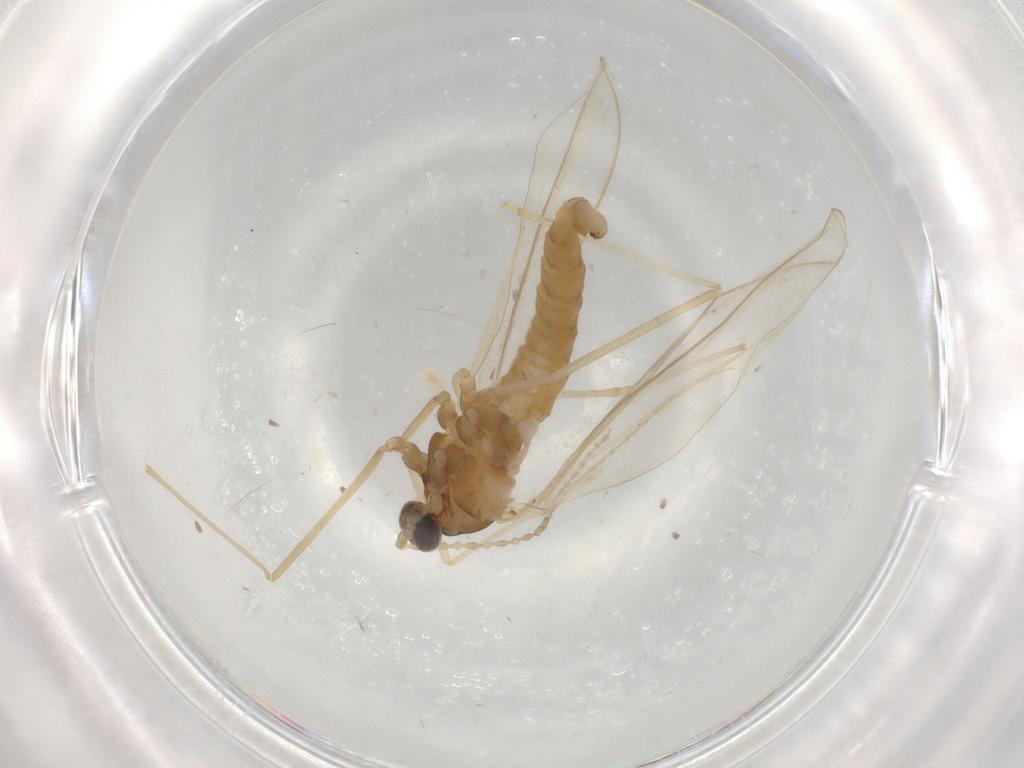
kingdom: Animalia
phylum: Arthropoda
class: Insecta
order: Diptera
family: Cecidomyiidae
